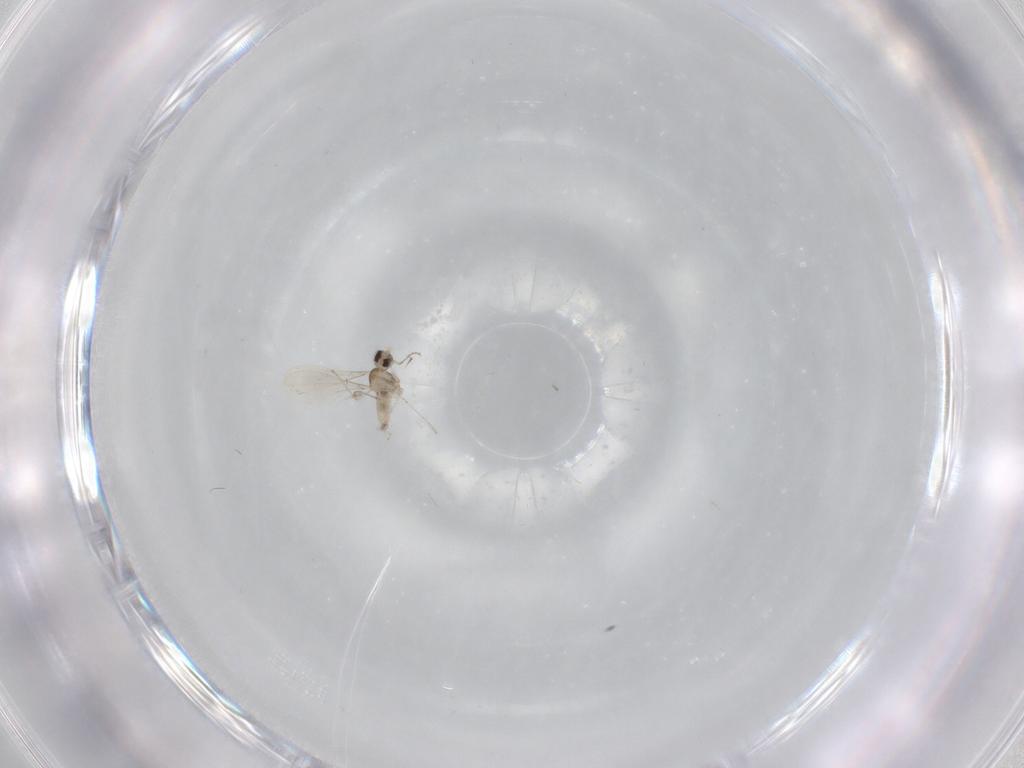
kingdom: Animalia
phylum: Arthropoda
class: Insecta
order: Diptera
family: Cecidomyiidae
